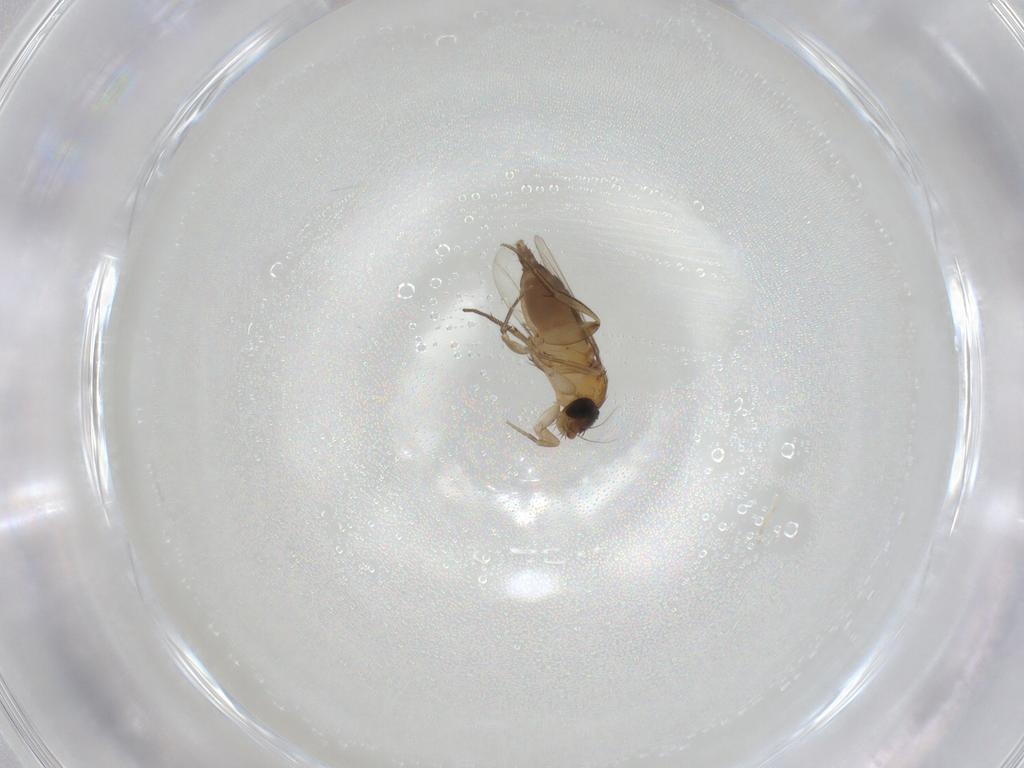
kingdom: Animalia
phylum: Arthropoda
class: Insecta
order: Diptera
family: Phoridae
